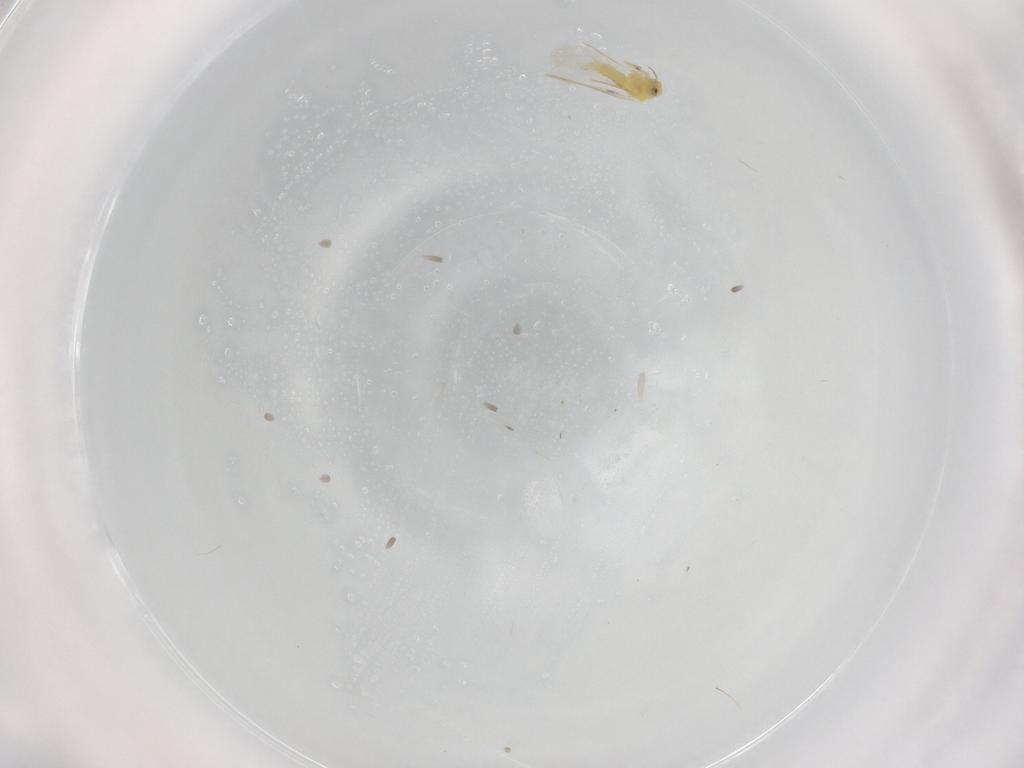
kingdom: Animalia
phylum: Arthropoda
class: Insecta
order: Hemiptera
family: Aleyrodidae
